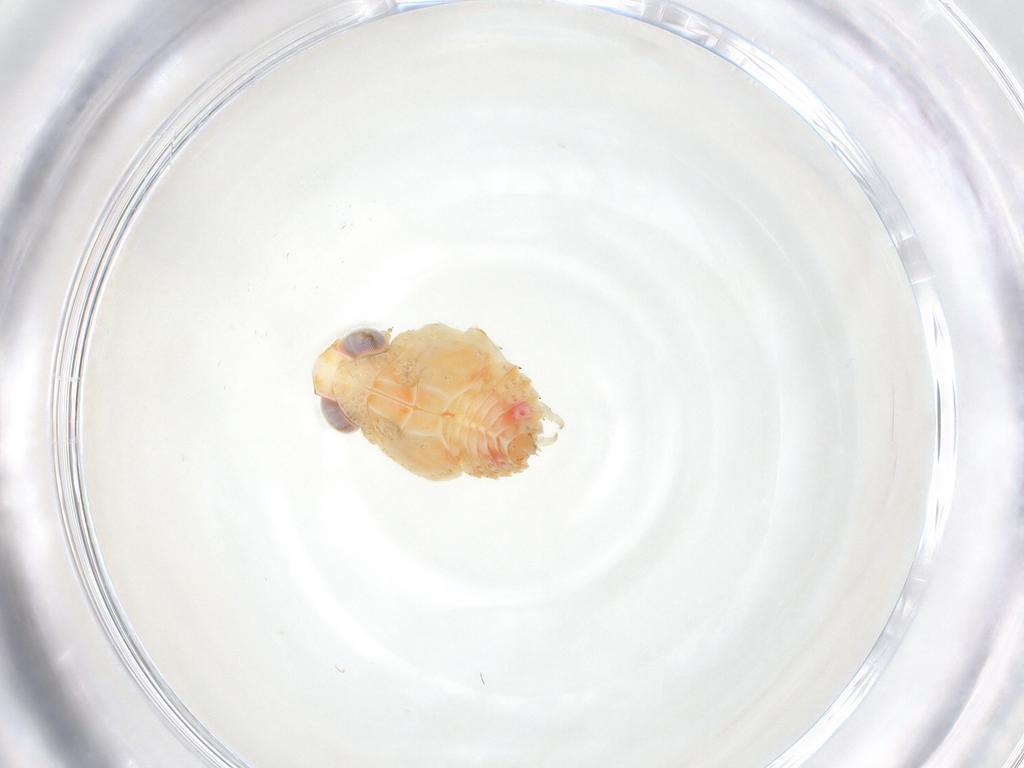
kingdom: Animalia
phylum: Arthropoda
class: Insecta
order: Hemiptera
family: Issidae
